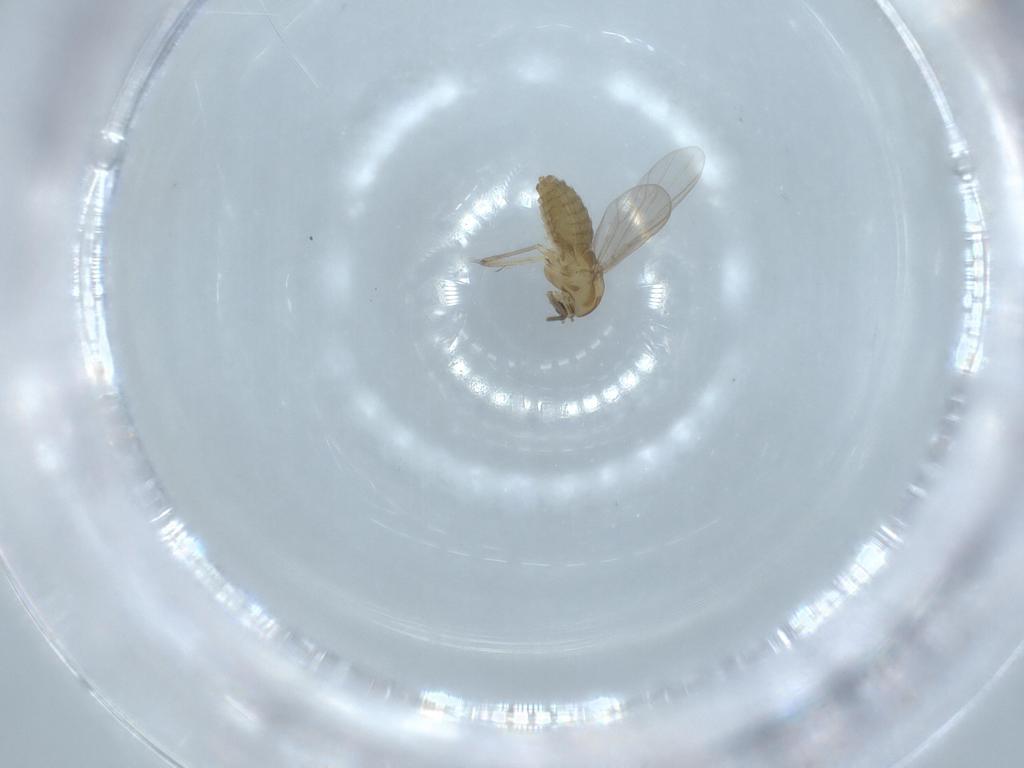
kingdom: Animalia
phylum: Arthropoda
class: Insecta
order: Diptera
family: Chironomidae
